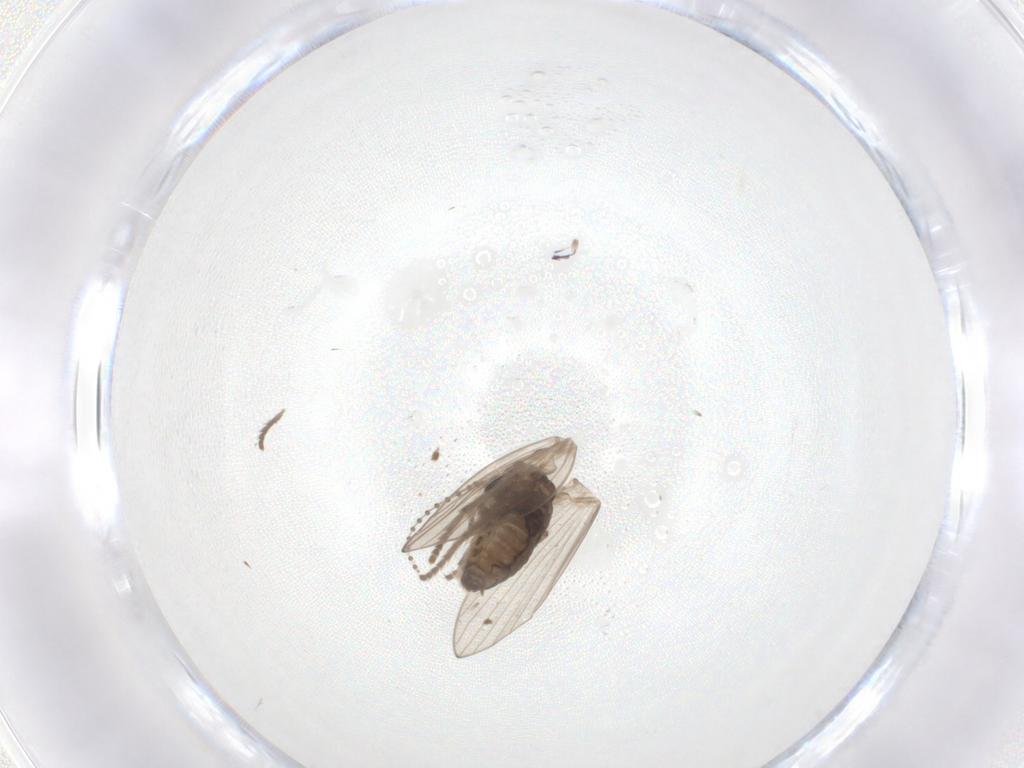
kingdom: Animalia
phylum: Arthropoda
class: Insecta
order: Diptera
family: Psychodidae
